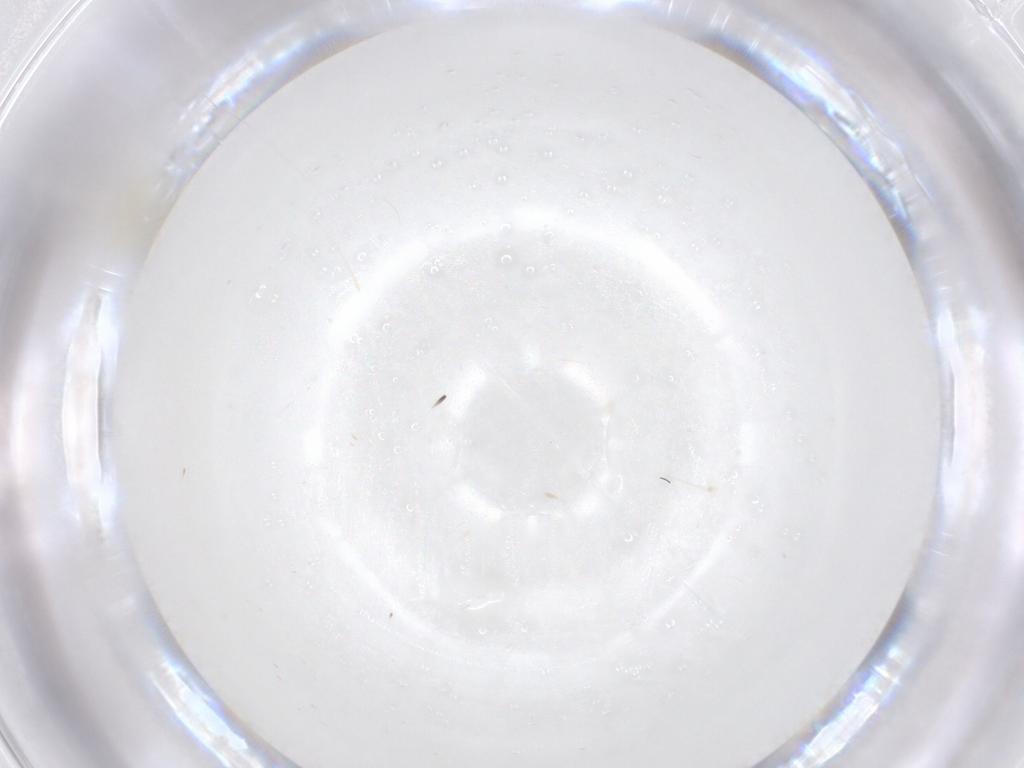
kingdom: Animalia
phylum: Arthropoda
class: Insecta
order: Hymenoptera
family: Aphelinidae
